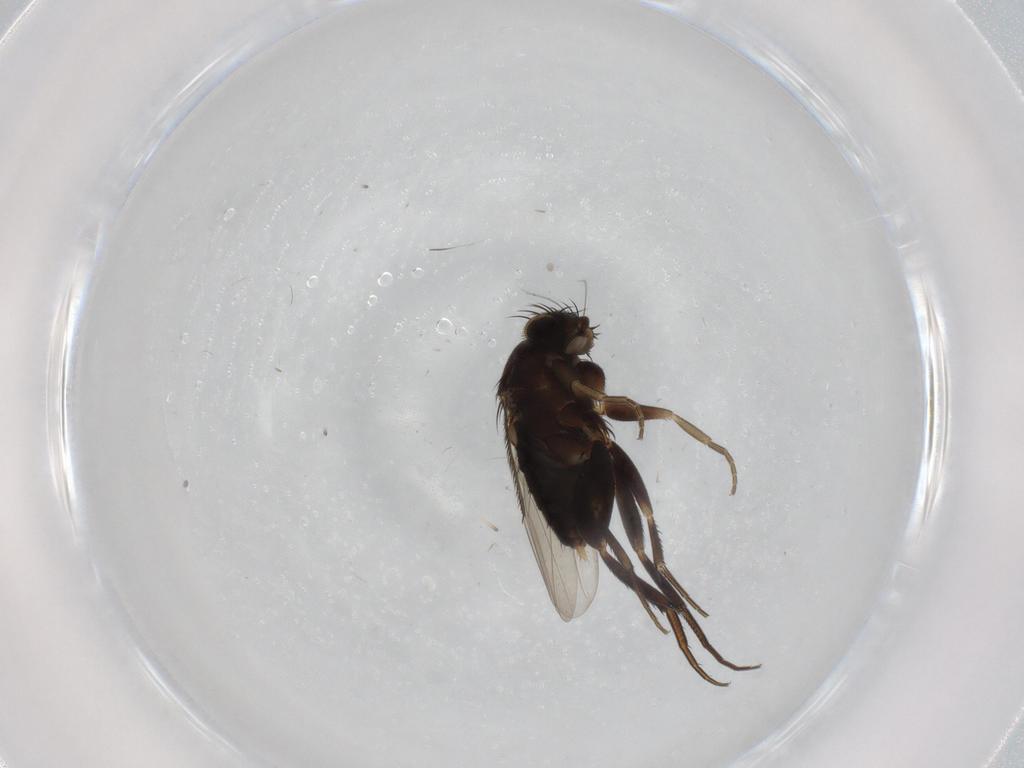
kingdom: Animalia
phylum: Arthropoda
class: Insecta
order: Diptera
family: Phoridae
